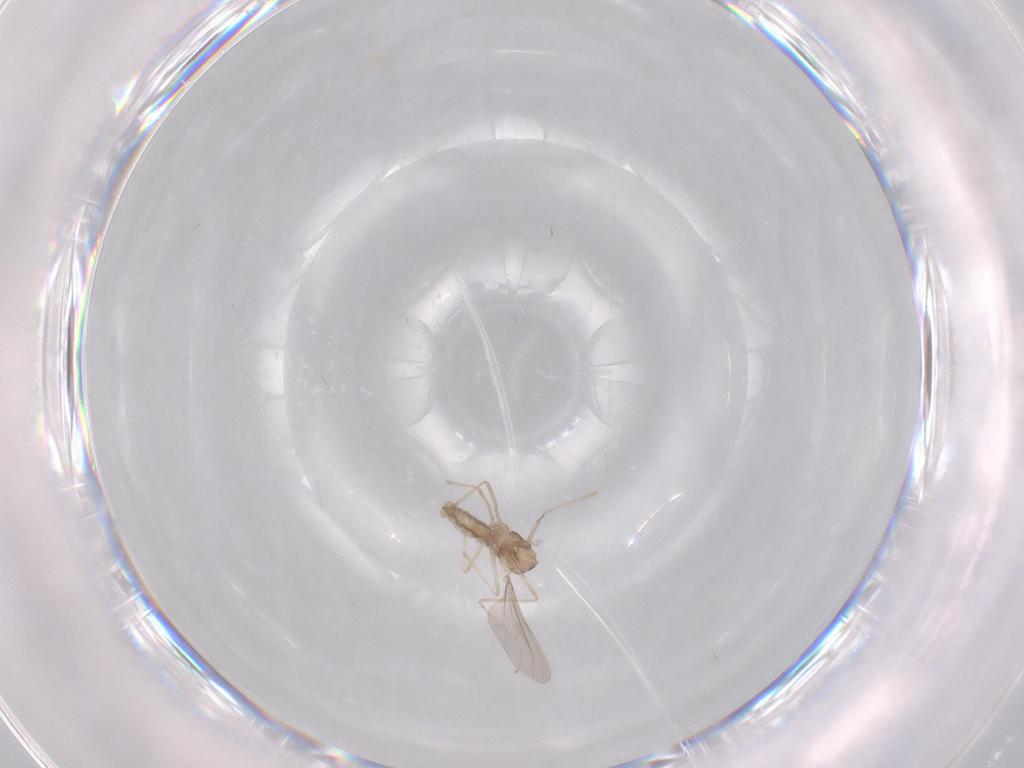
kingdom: Animalia
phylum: Arthropoda
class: Insecta
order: Diptera
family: Cecidomyiidae
